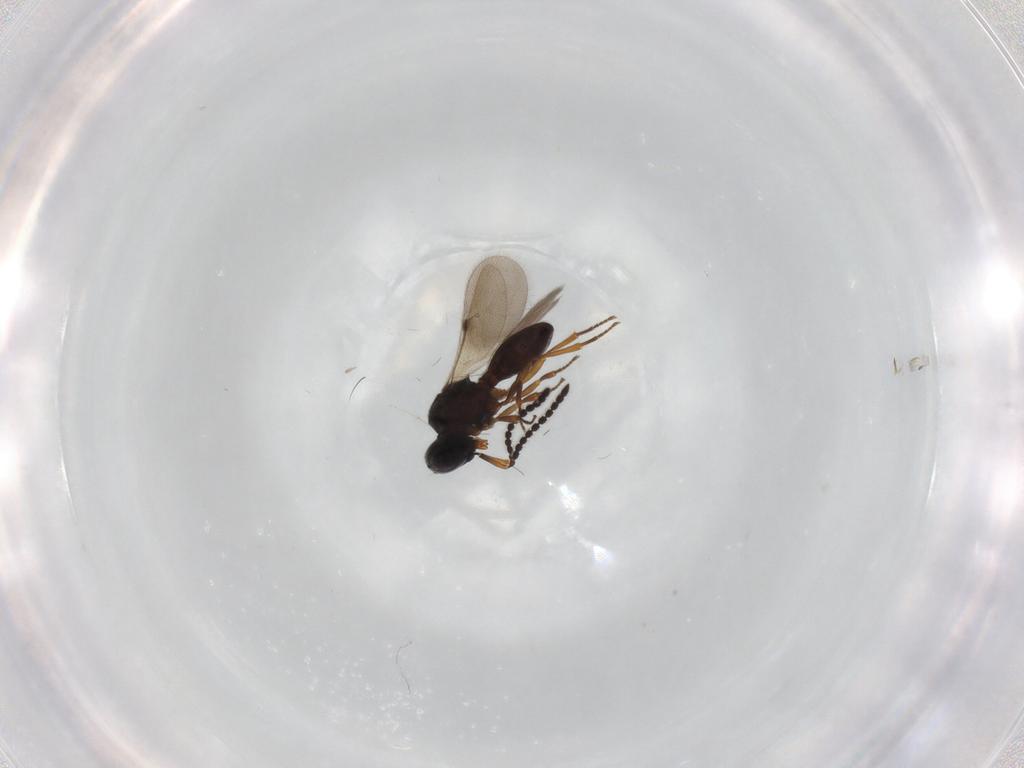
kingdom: Animalia
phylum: Arthropoda
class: Insecta
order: Hymenoptera
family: Scelionidae
